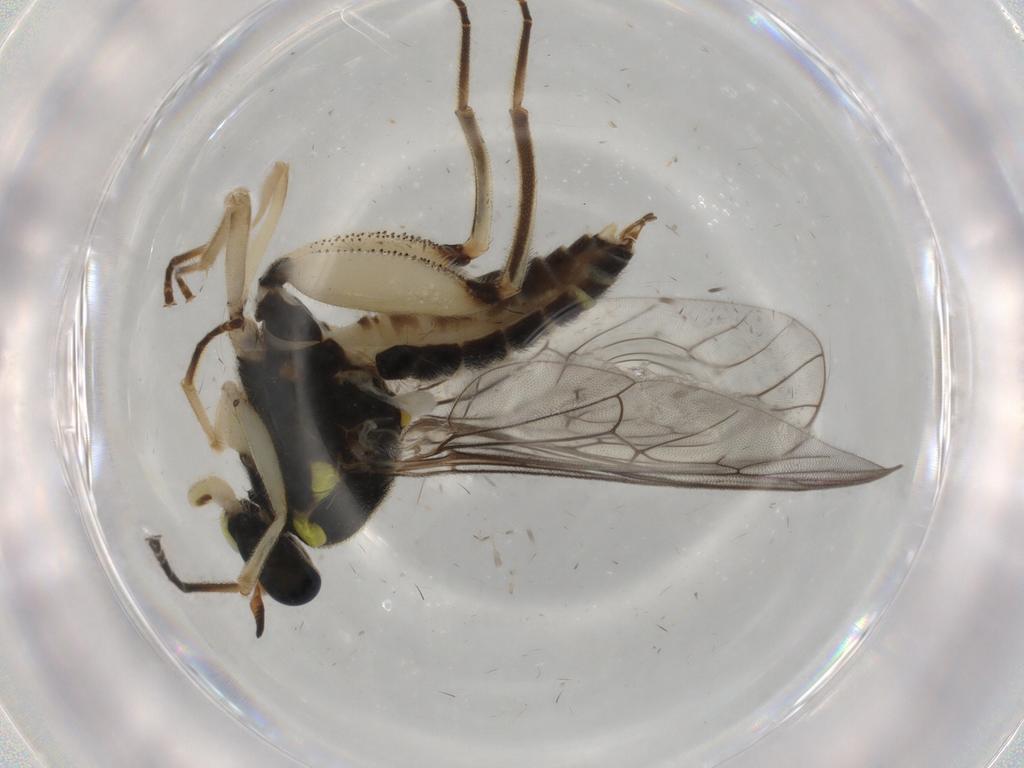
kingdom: Animalia
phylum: Arthropoda
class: Insecta
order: Diptera
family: Xylomyidae
